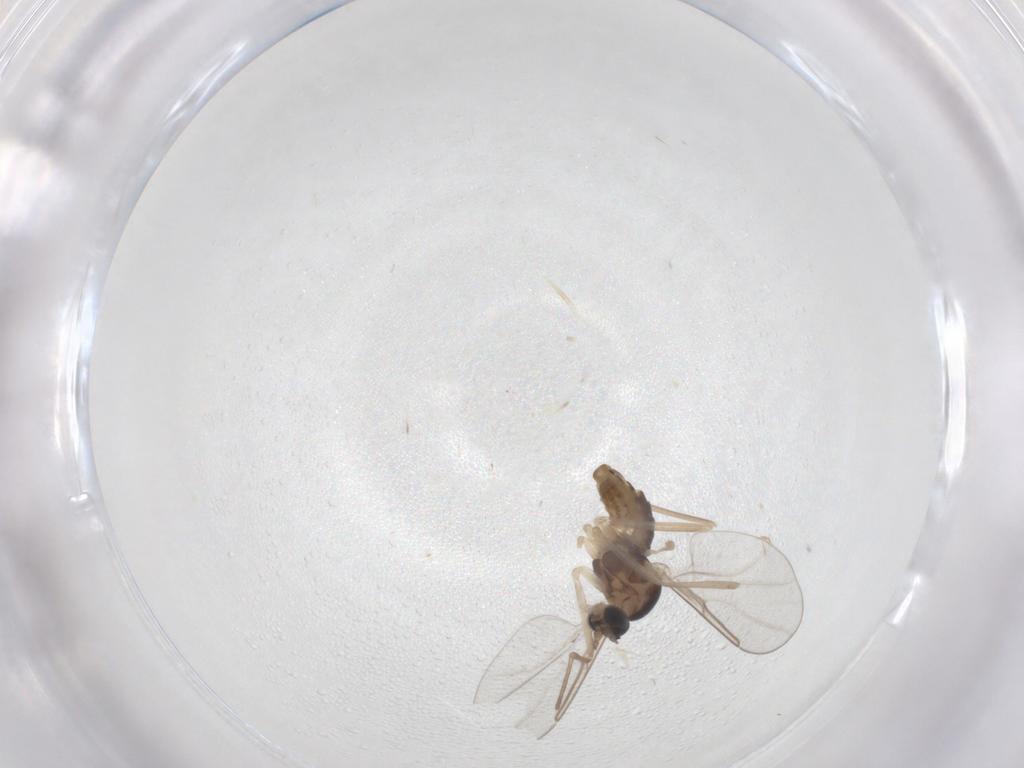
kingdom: Animalia
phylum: Arthropoda
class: Insecta
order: Diptera
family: Cecidomyiidae
